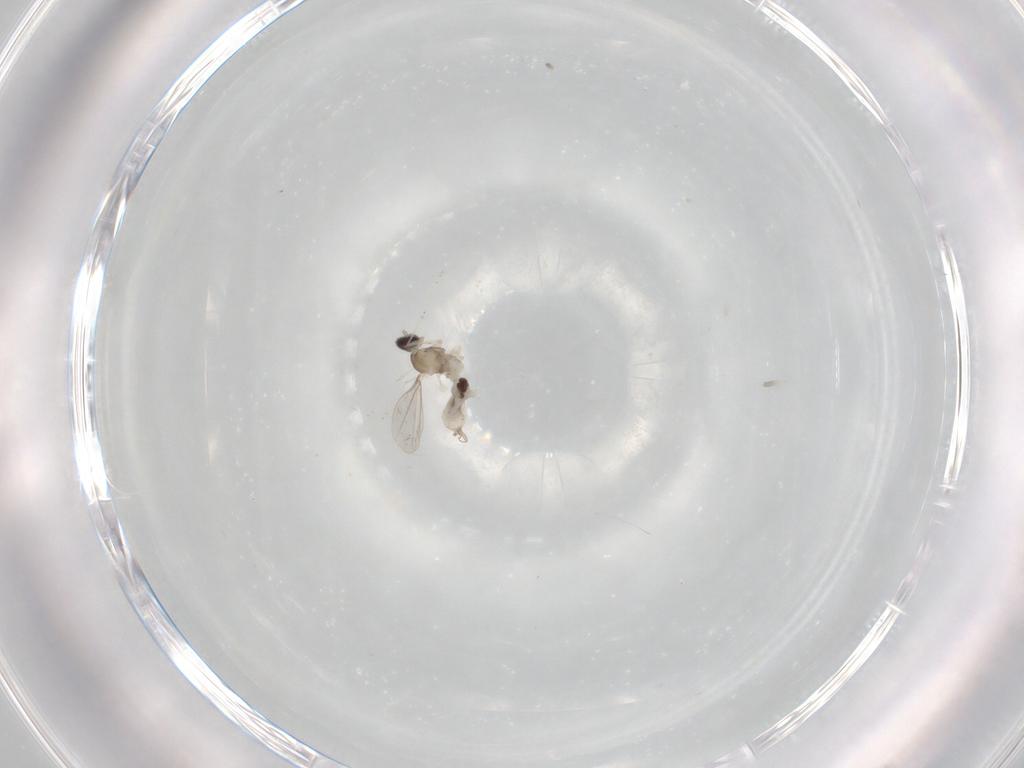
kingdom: Animalia
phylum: Arthropoda
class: Insecta
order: Diptera
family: Cecidomyiidae
